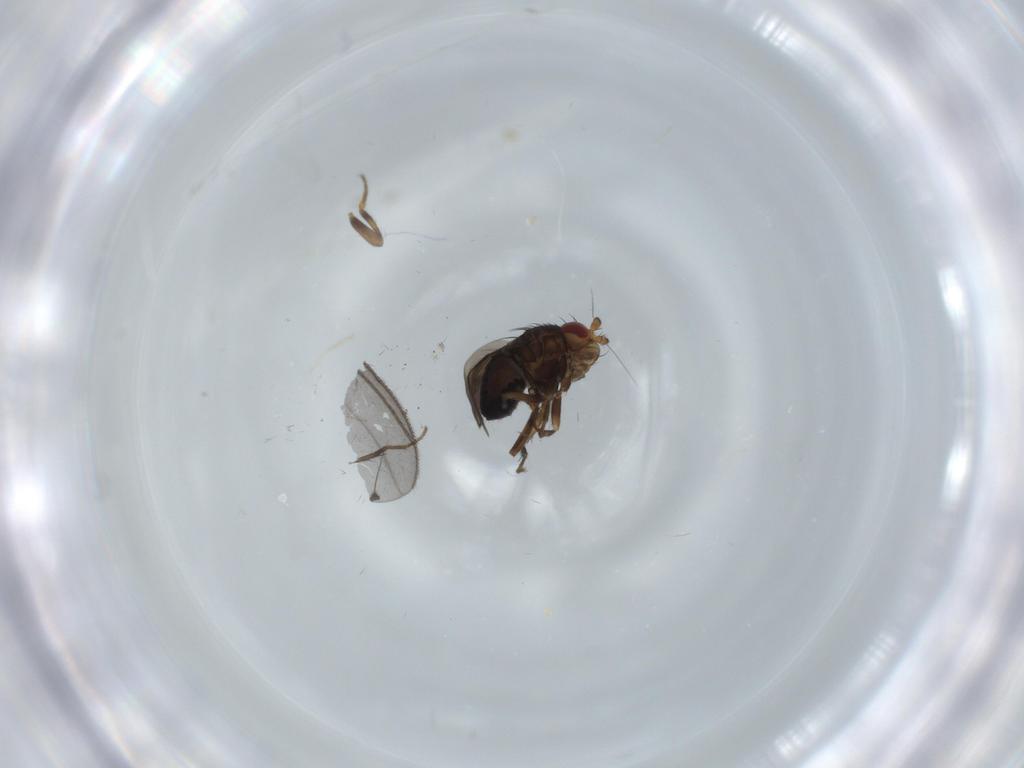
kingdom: Animalia
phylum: Arthropoda
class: Insecta
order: Diptera
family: Sciaridae
